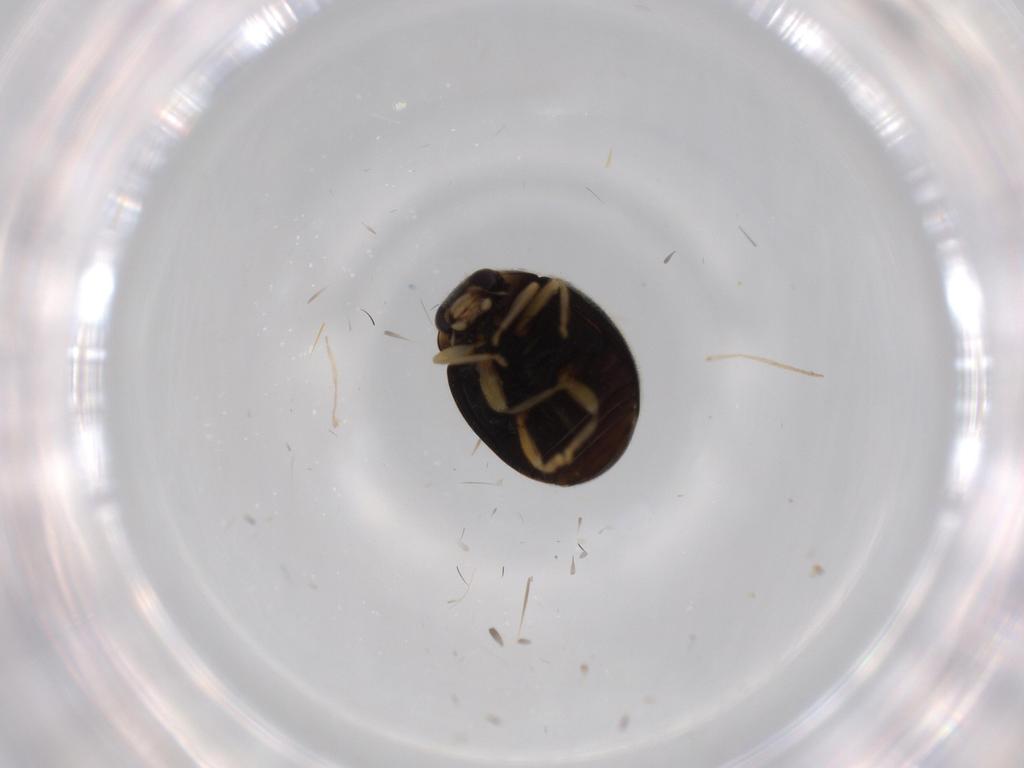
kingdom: Animalia
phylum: Arthropoda
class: Insecta
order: Coleoptera
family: Coccinellidae
